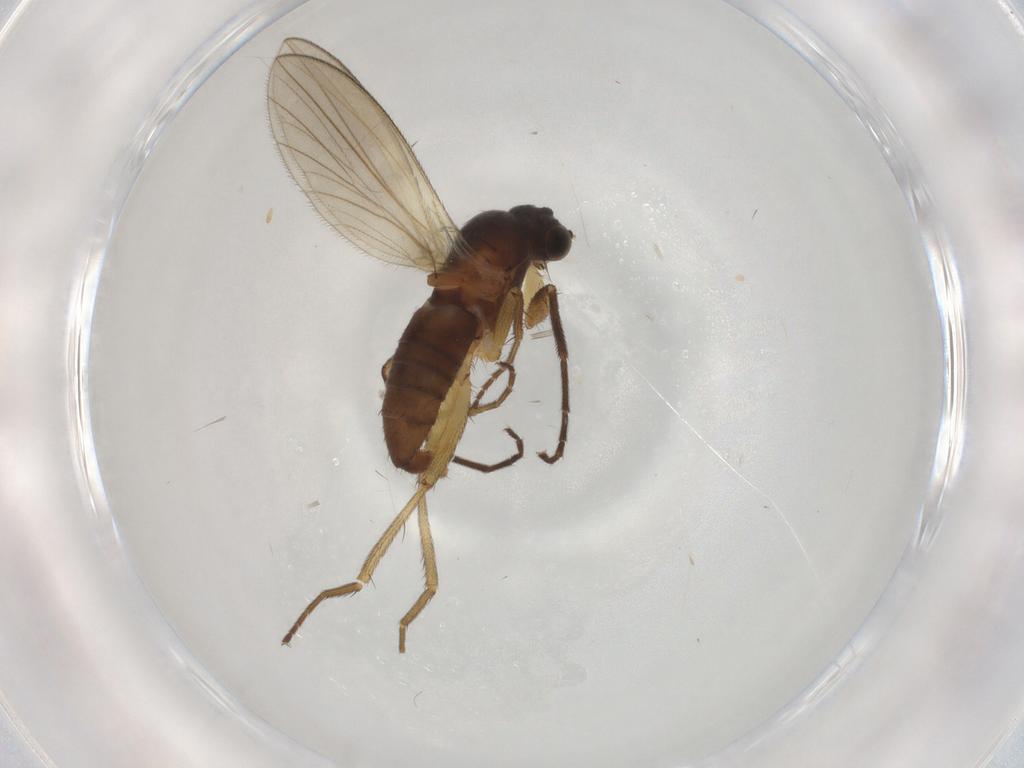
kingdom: Animalia
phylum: Arthropoda
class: Insecta
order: Diptera
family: Lonchopteridae
